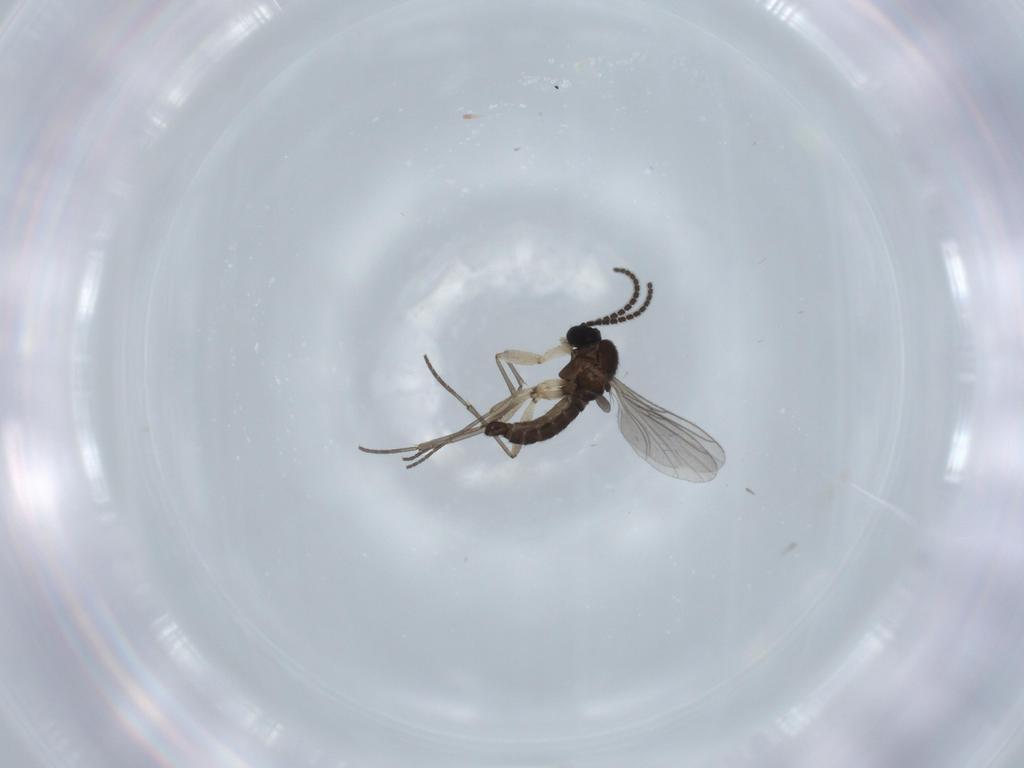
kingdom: Animalia
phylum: Arthropoda
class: Insecta
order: Diptera
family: Sciaridae
